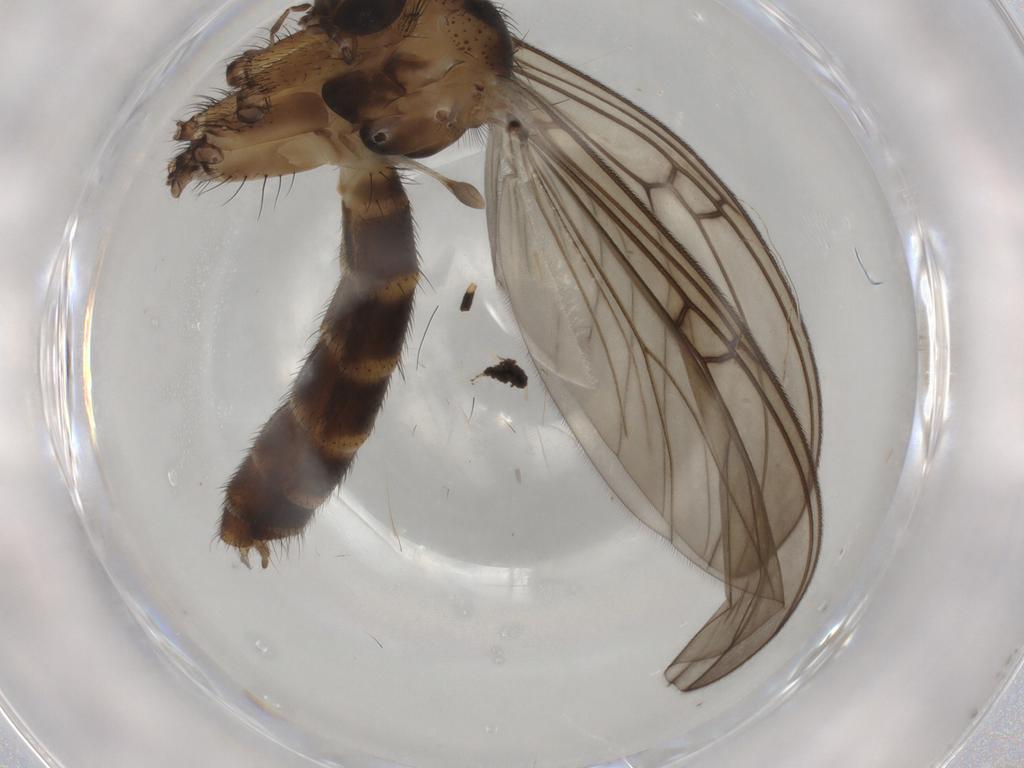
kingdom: Animalia
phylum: Arthropoda
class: Insecta
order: Diptera
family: Mycetophilidae
